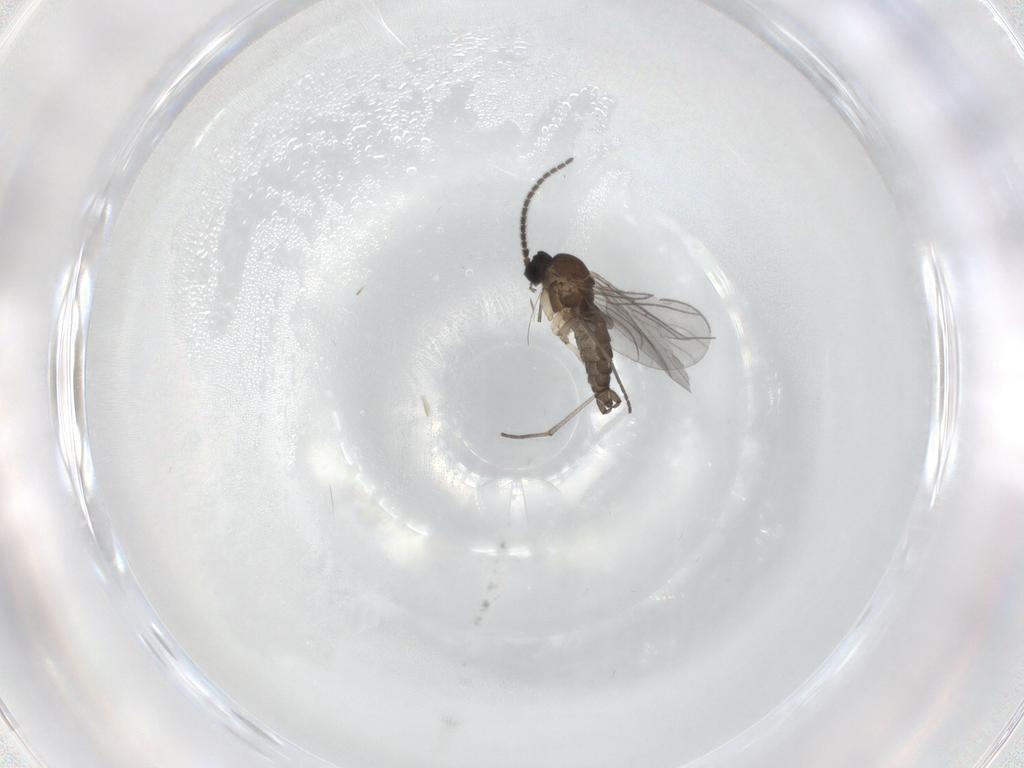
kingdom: Animalia
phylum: Arthropoda
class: Insecta
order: Diptera
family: Sciaridae
